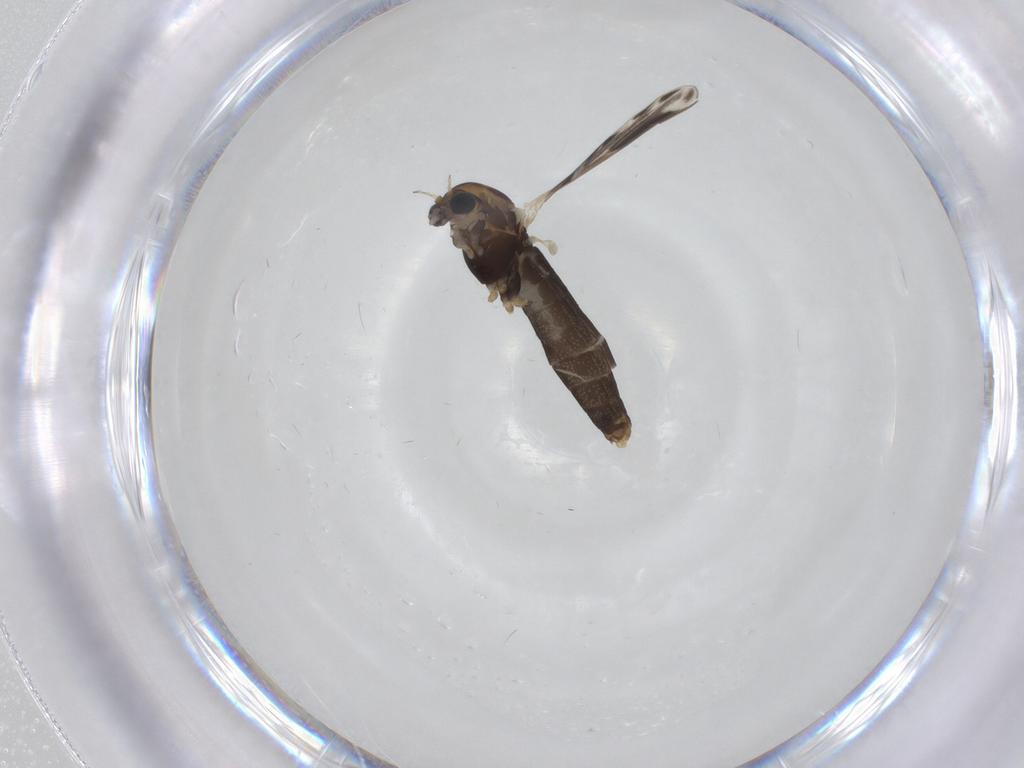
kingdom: Animalia
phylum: Arthropoda
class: Insecta
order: Diptera
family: Chironomidae
